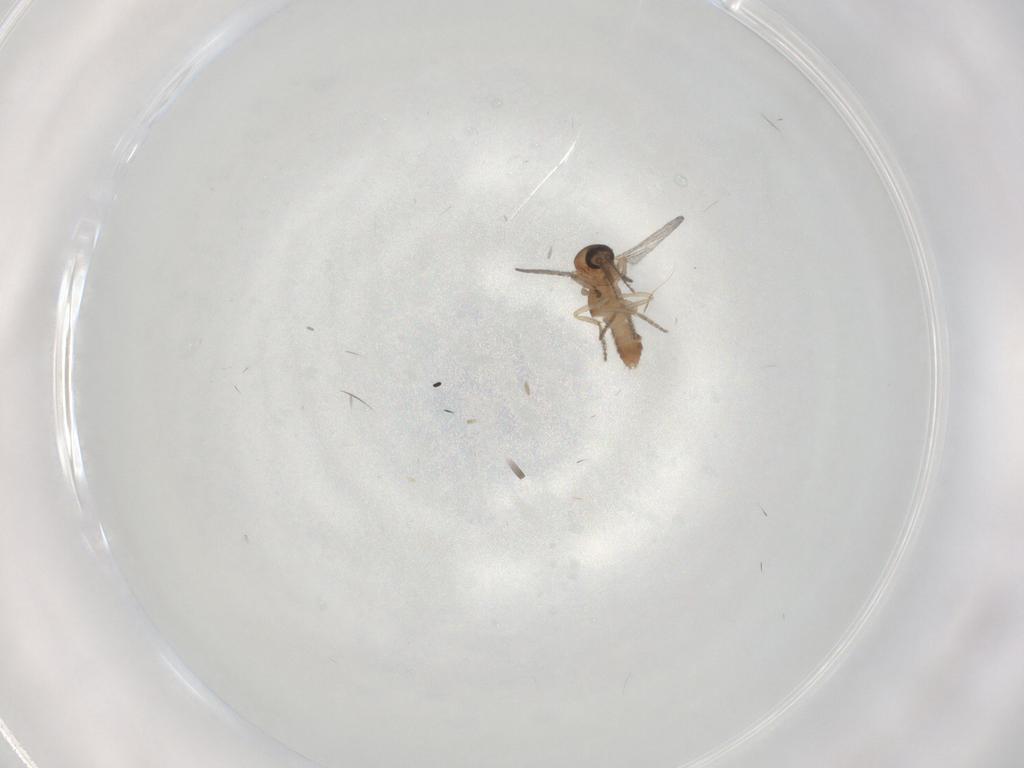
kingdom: Animalia
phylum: Arthropoda
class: Insecta
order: Diptera
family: Ceratopogonidae
